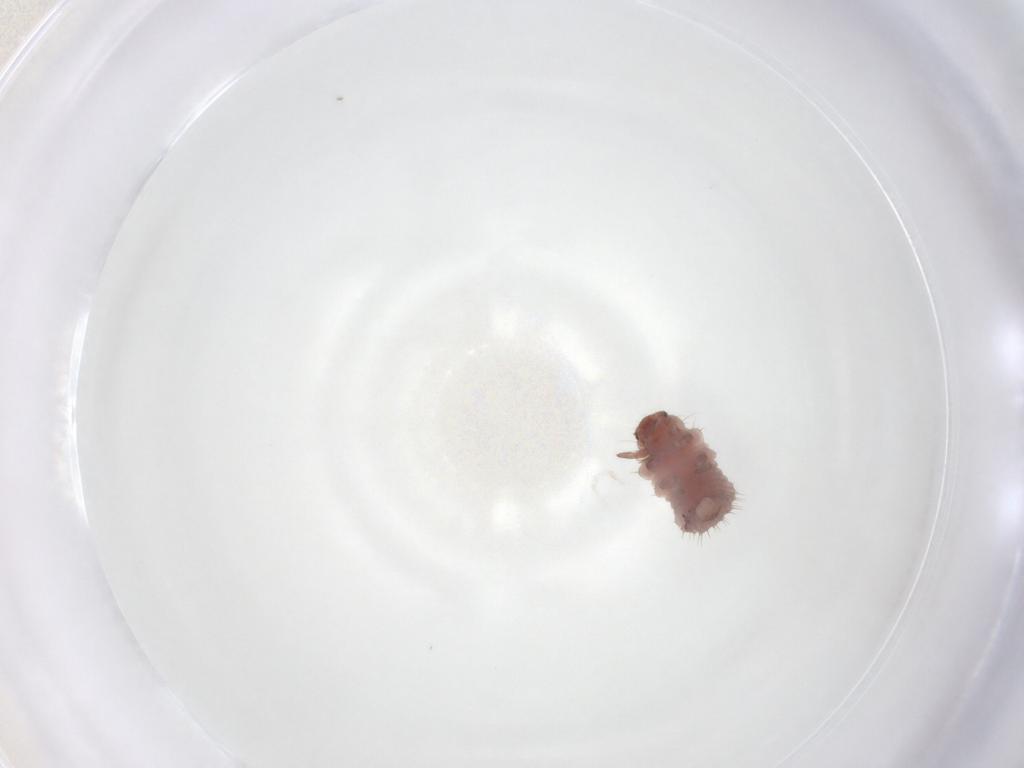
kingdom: Animalia
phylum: Arthropoda
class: Insecta
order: Coleoptera
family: Coccinellidae
